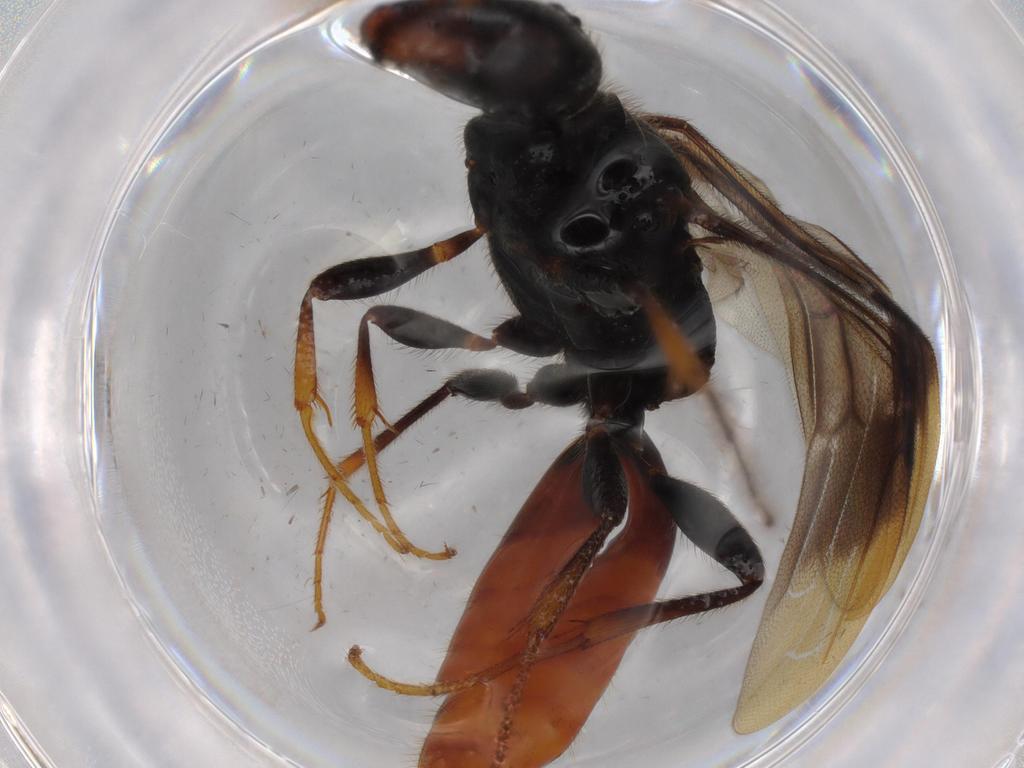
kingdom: Animalia
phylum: Arthropoda
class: Insecta
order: Hymenoptera
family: Bethylidae
